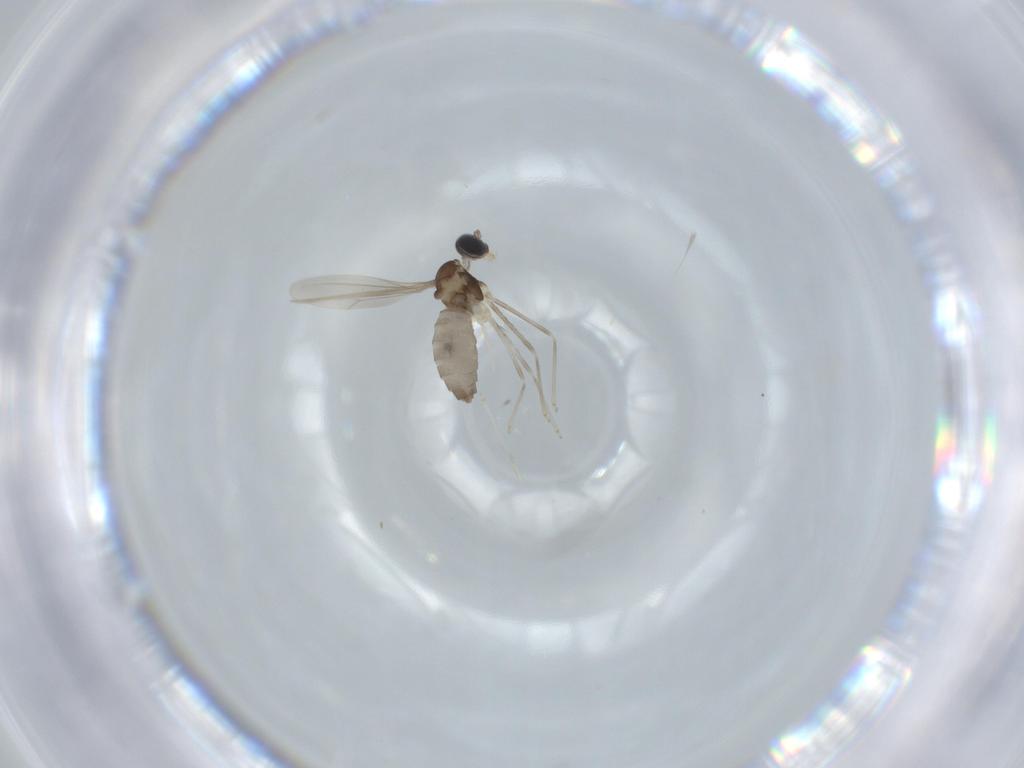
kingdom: Animalia
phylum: Arthropoda
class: Insecta
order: Diptera
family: Cecidomyiidae
